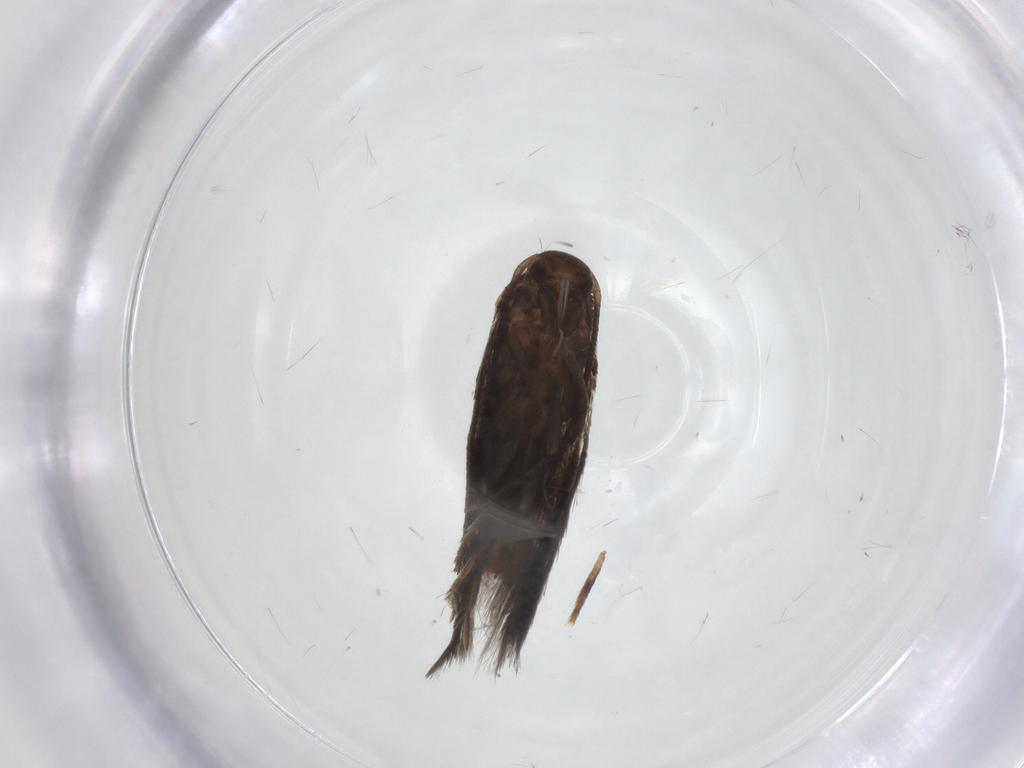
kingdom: Animalia
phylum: Arthropoda
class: Insecta
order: Lepidoptera
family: Elachistidae
